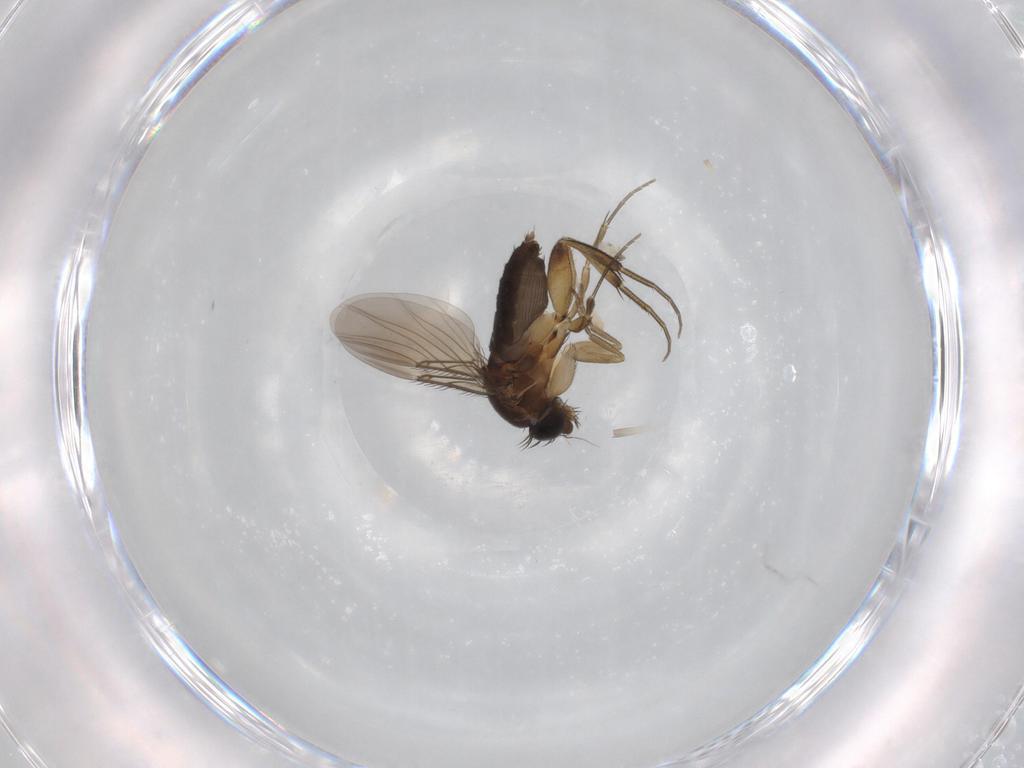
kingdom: Animalia
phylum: Arthropoda
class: Insecta
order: Diptera
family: Phoridae
